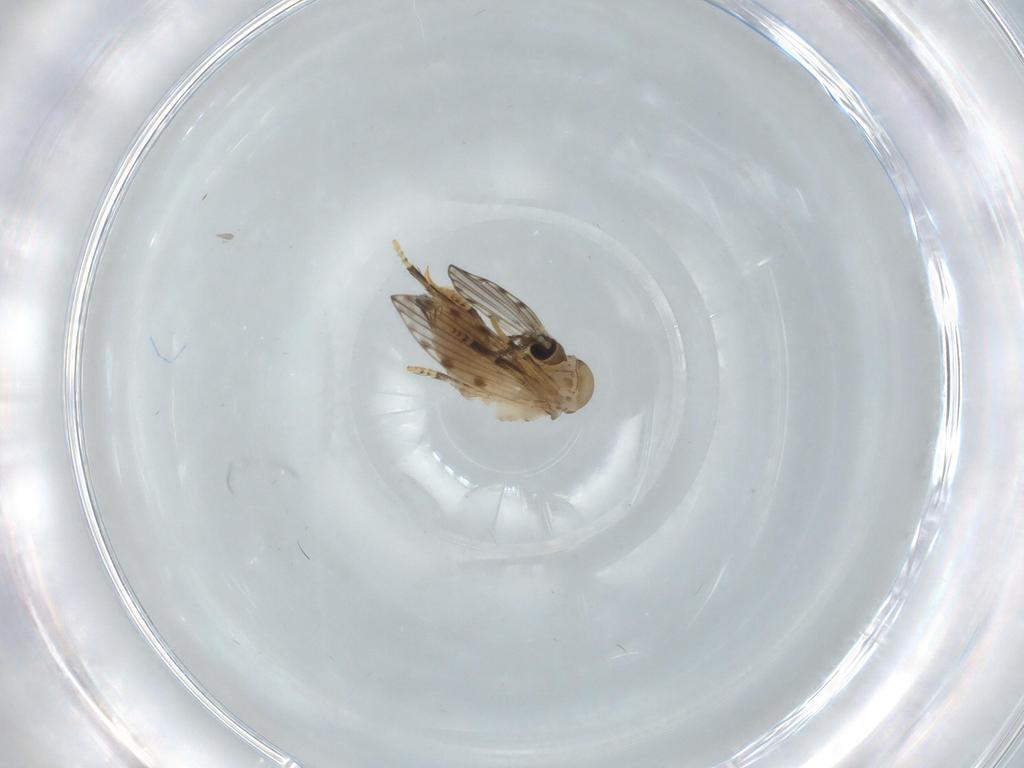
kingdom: Animalia
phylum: Arthropoda
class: Insecta
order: Diptera
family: Psychodidae
